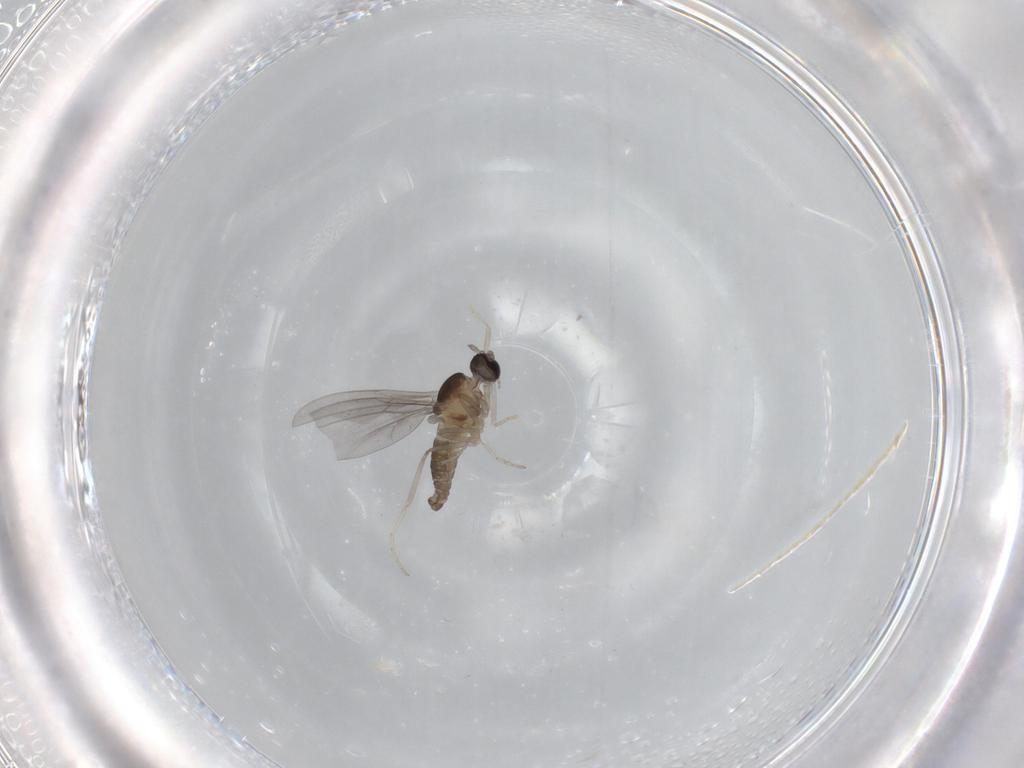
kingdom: Animalia
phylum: Arthropoda
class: Insecta
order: Diptera
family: Cecidomyiidae
